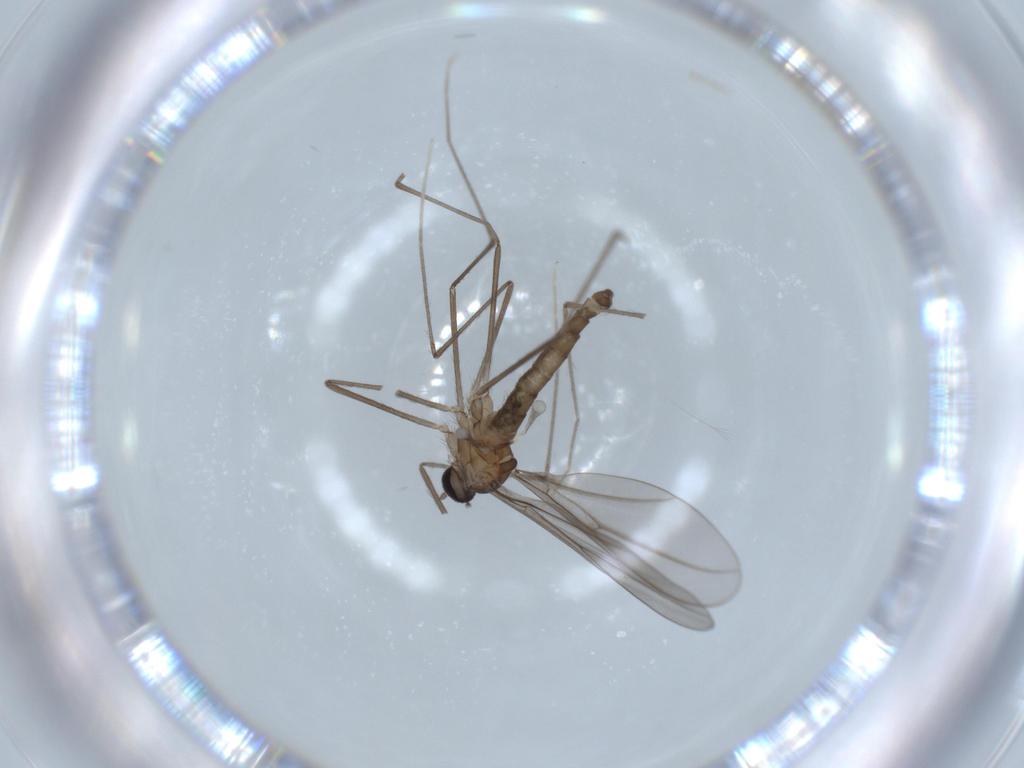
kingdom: Animalia
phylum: Arthropoda
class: Insecta
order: Diptera
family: Cecidomyiidae
